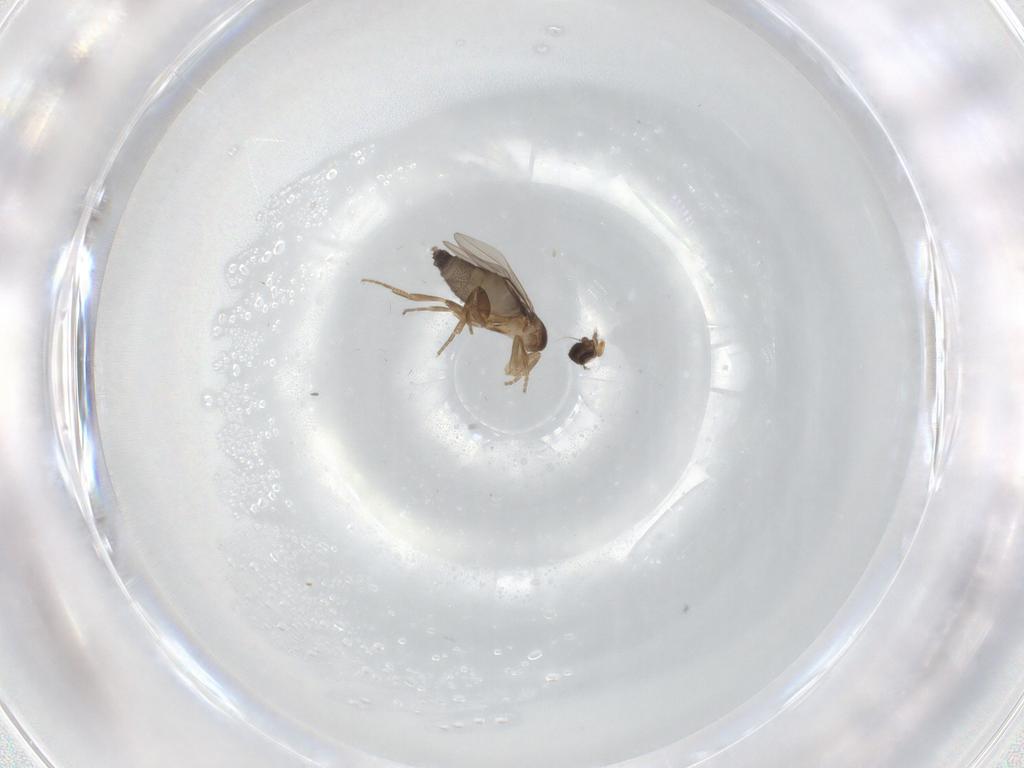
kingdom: Animalia
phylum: Arthropoda
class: Insecta
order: Diptera
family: Phoridae
